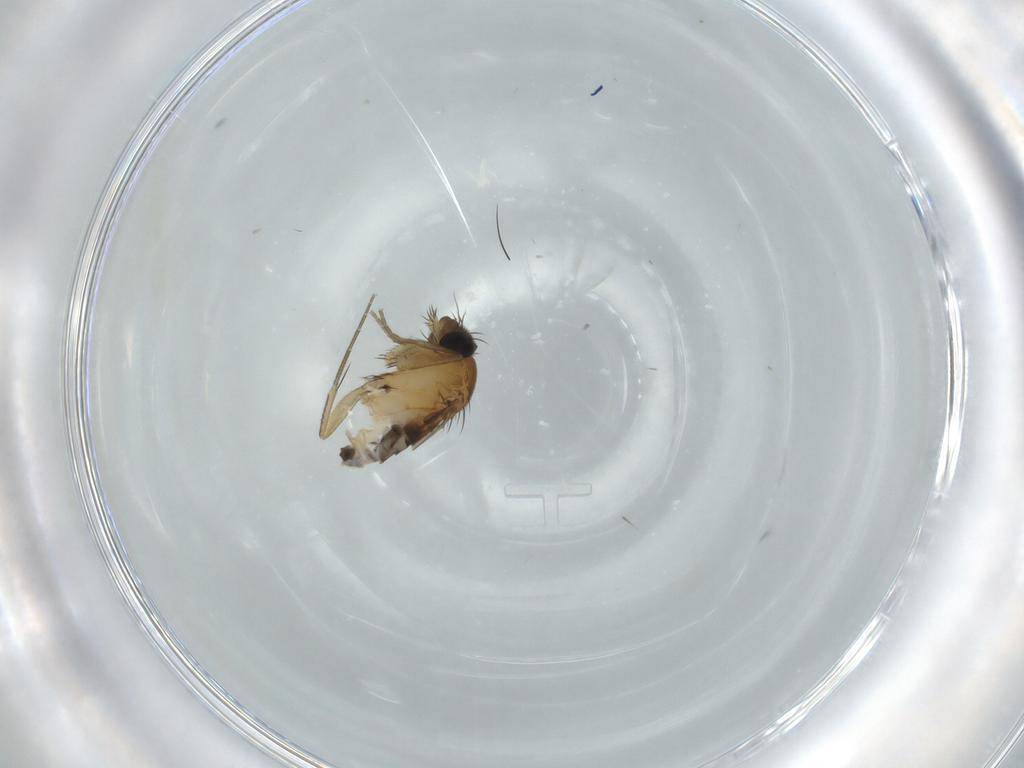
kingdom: Animalia
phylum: Arthropoda
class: Insecta
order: Diptera
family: Phoridae
